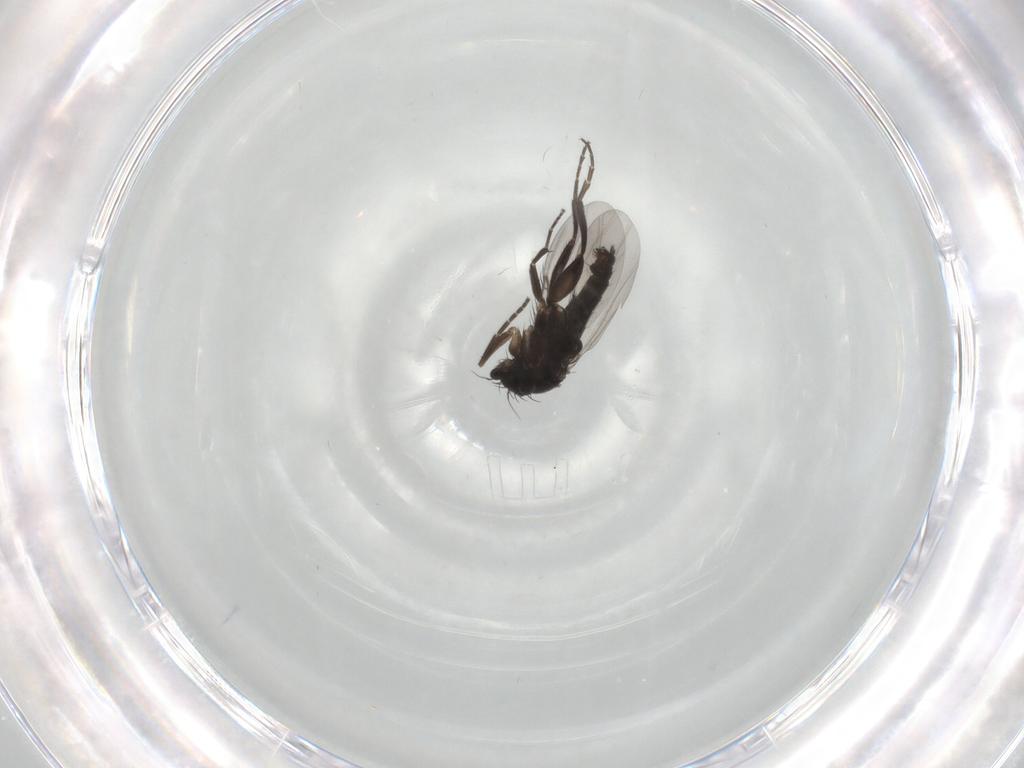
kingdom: Animalia
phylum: Arthropoda
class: Insecta
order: Diptera
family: Phoridae
